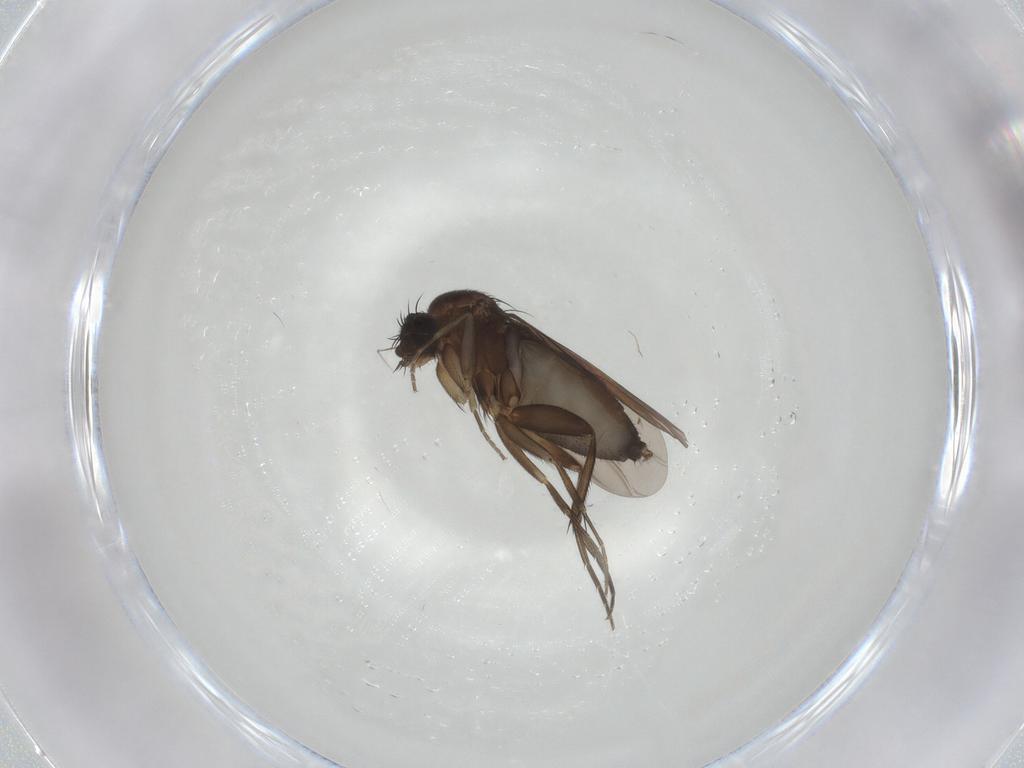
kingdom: Animalia
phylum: Arthropoda
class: Insecta
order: Diptera
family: Phoridae
